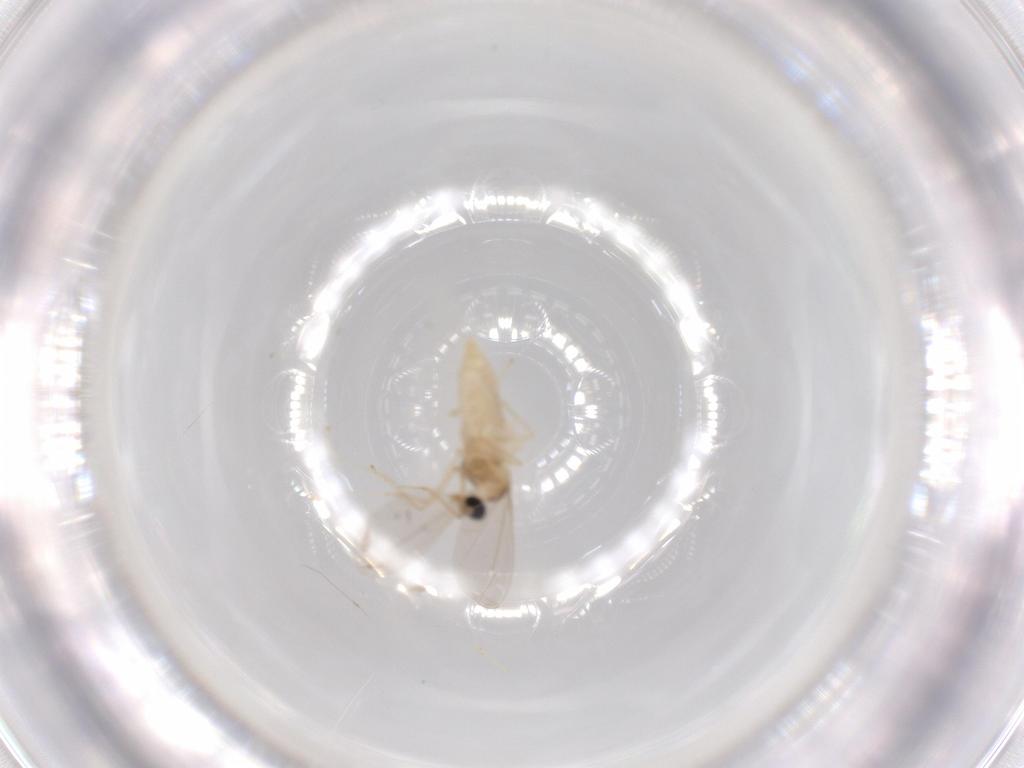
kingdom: Animalia
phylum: Arthropoda
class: Insecta
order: Diptera
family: Cecidomyiidae
